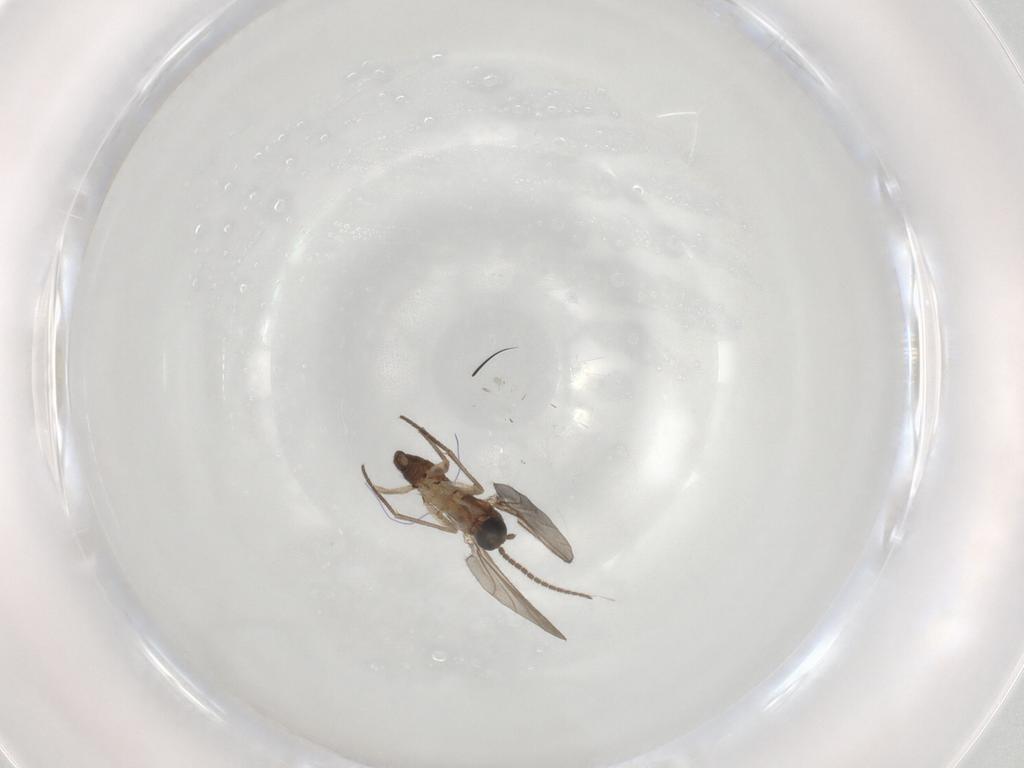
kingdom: Animalia
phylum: Arthropoda
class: Insecta
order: Diptera
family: Sciaridae
